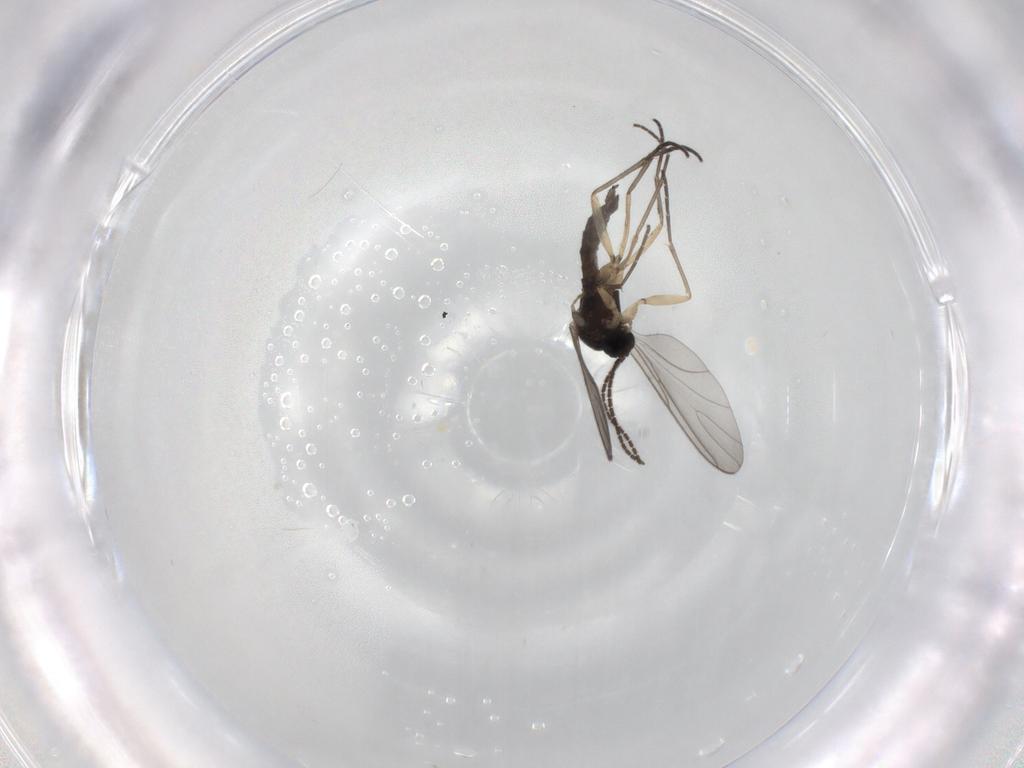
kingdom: Animalia
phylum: Arthropoda
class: Insecta
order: Diptera
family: Sciaridae
